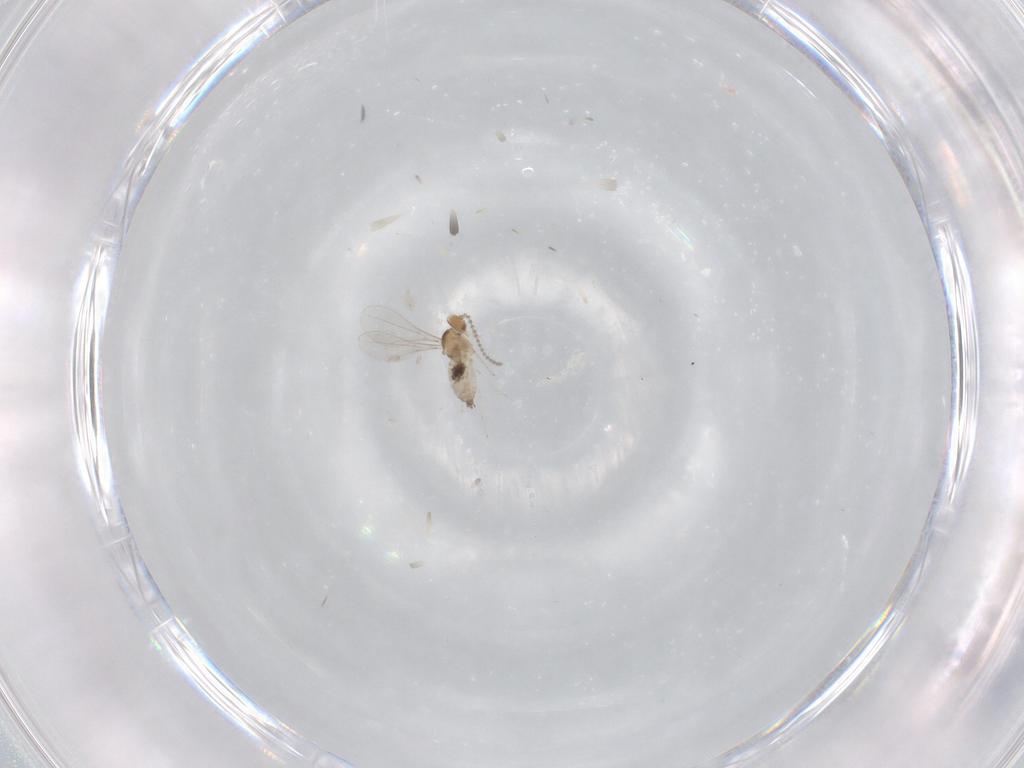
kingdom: Animalia
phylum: Arthropoda
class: Insecta
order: Diptera
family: Cecidomyiidae
